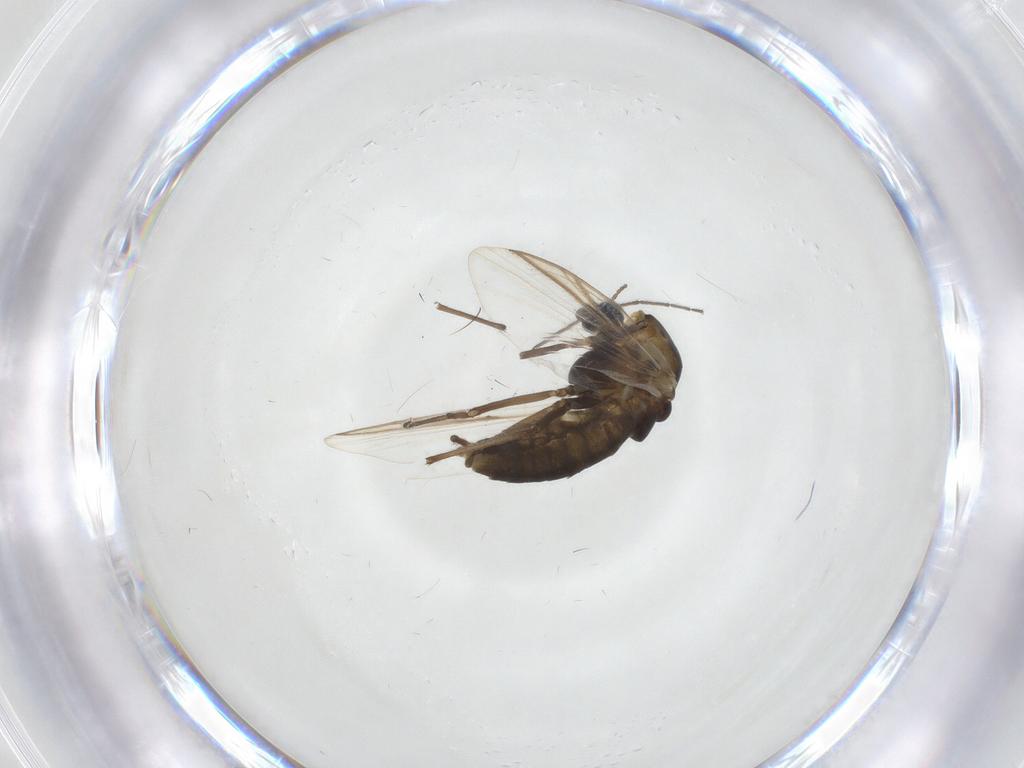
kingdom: Animalia
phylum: Arthropoda
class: Insecta
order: Diptera
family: Chironomidae
